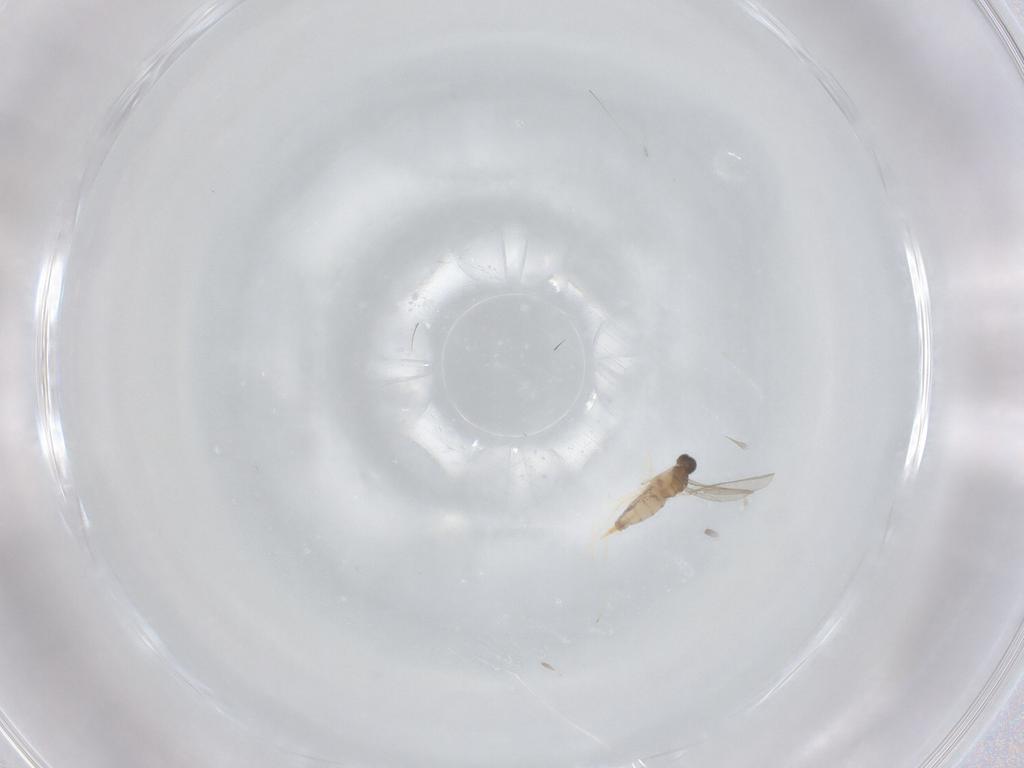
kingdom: Animalia
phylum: Arthropoda
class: Insecta
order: Diptera
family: Cecidomyiidae
